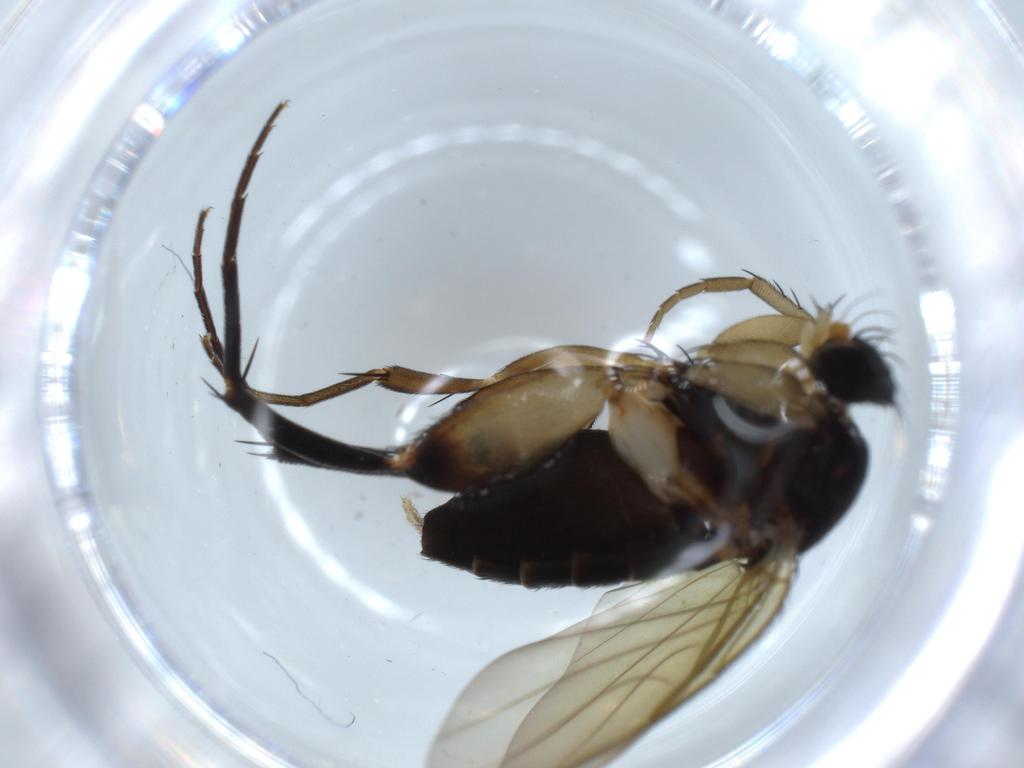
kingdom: Animalia
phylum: Arthropoda
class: Insecta
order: Diptera
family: Phoridae
